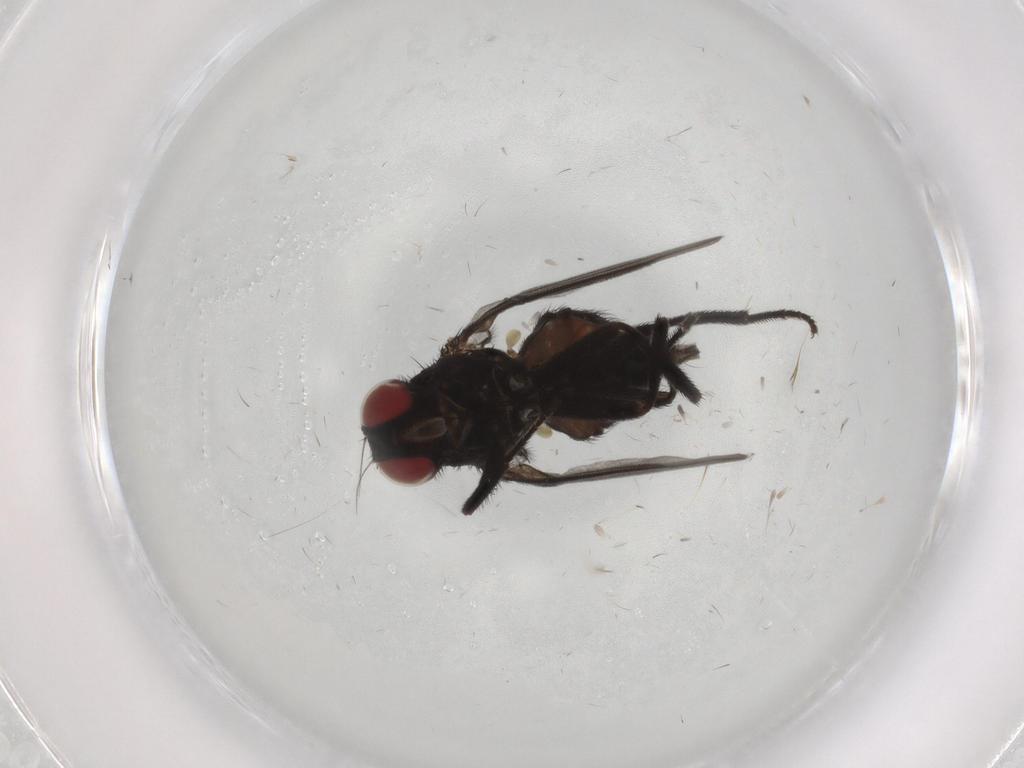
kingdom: Animalia
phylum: Arthropoda
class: Insecta
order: Diptera
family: Agromyzidae
